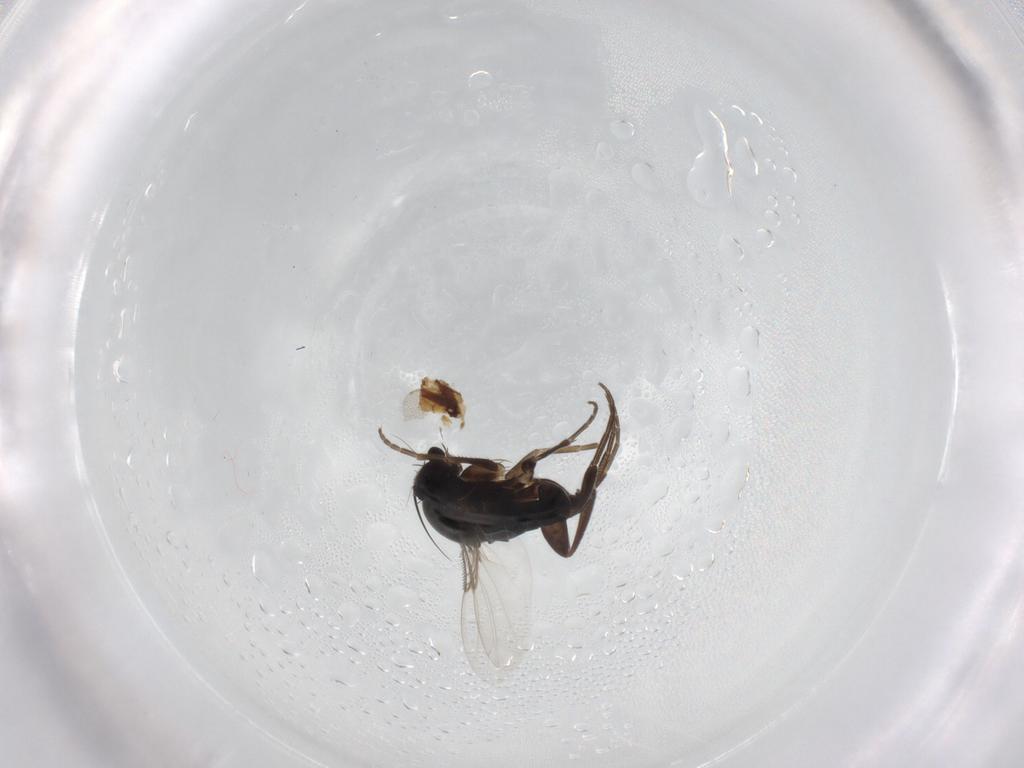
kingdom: Animalia
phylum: Arthropoda
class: Insecta
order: Diptera
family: Phoridae
